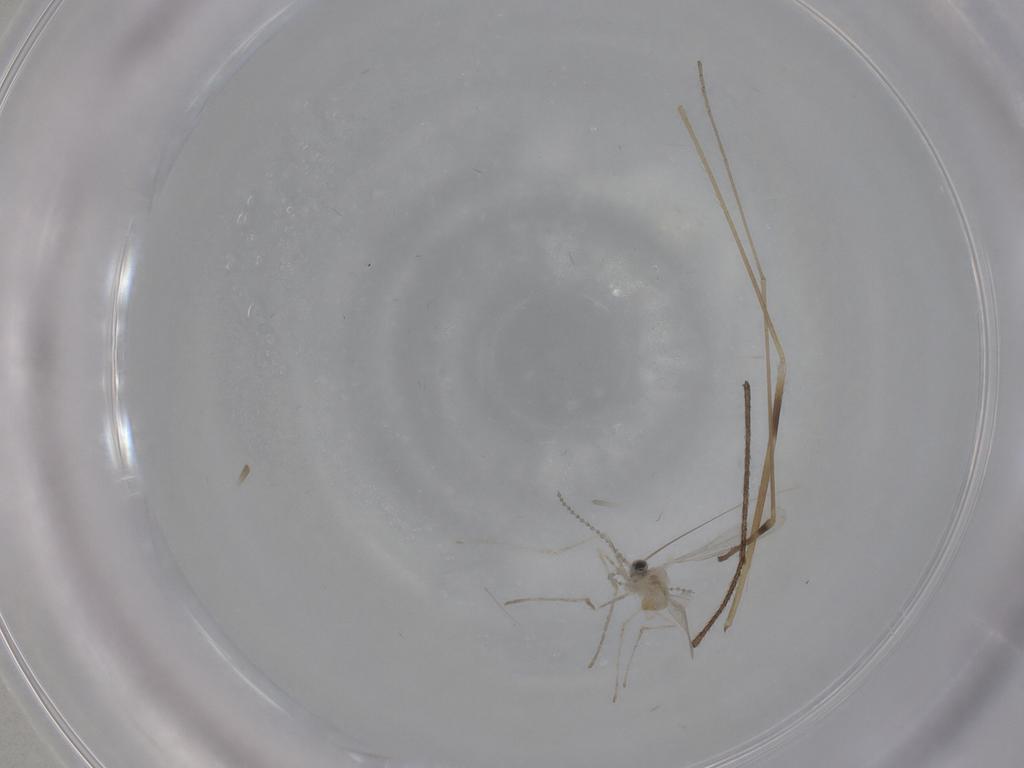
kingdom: Animalia
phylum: Arthropoda
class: Insecta
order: Diptera
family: Cecidomyiidae
